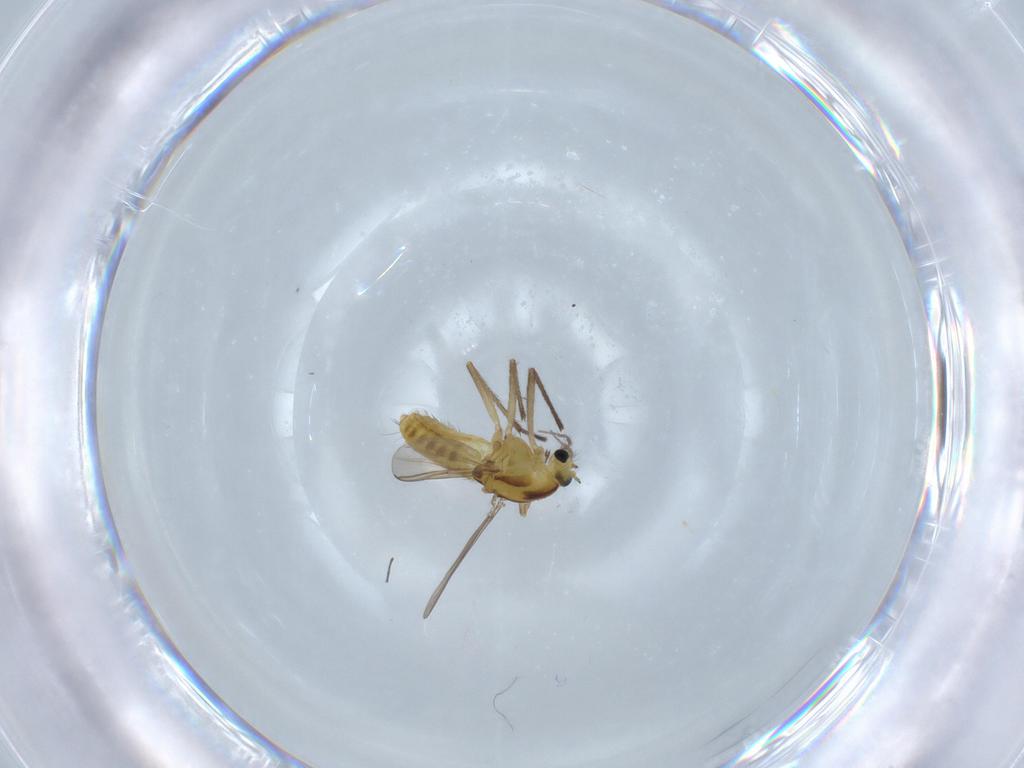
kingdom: Animalia
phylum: Arthropoda
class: Insecta
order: Diptera
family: Chironomidae
